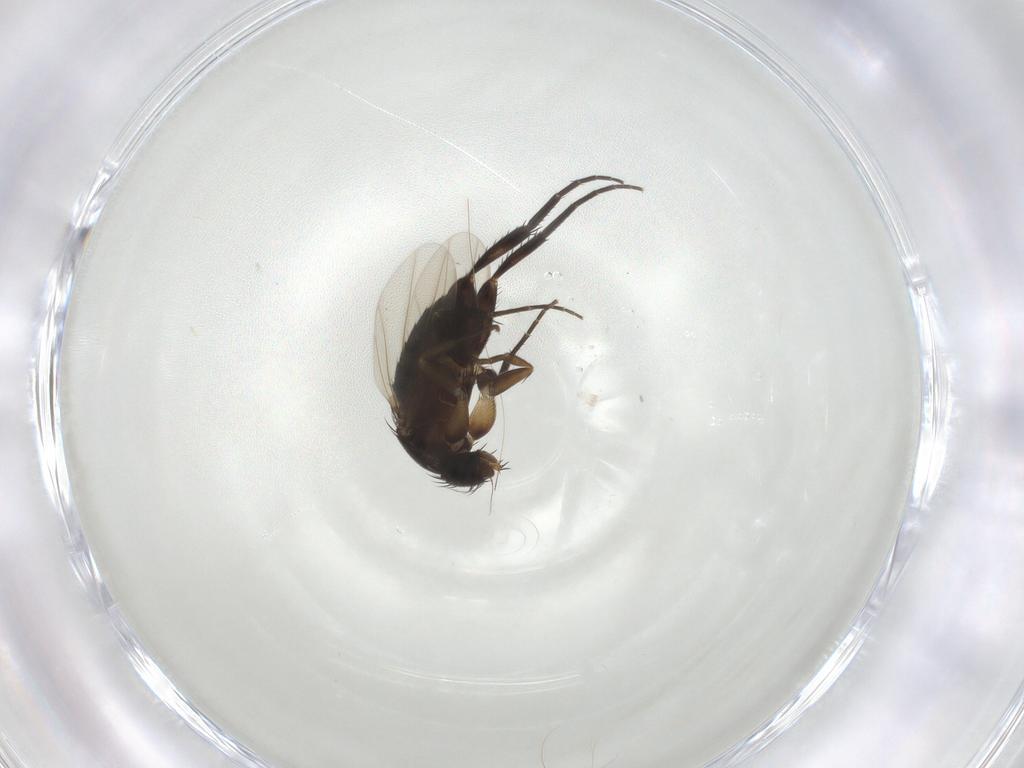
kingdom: Animalia
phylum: Arthropoda
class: Insecta
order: Diptera
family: Phoridae
